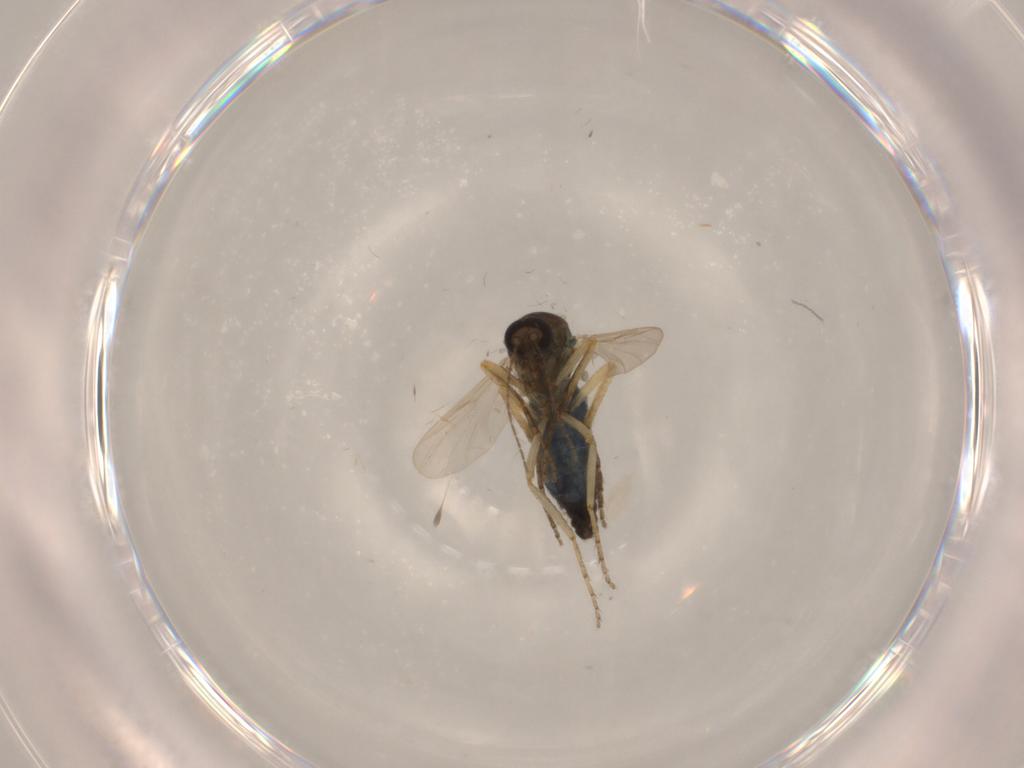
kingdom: Animalia
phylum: Arthropoda
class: Insecta
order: Diptera
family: Ceratopogonidae
